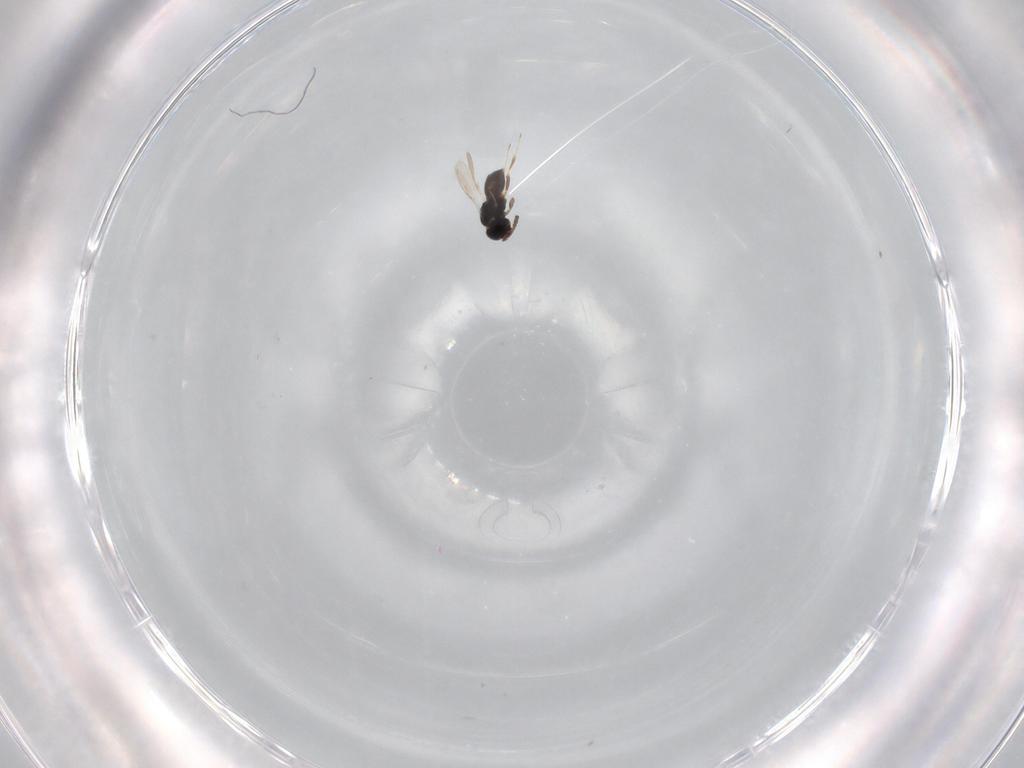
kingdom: Animalia
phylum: Arthropoda
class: Insecta
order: Hymenoptera
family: Scelionidae
